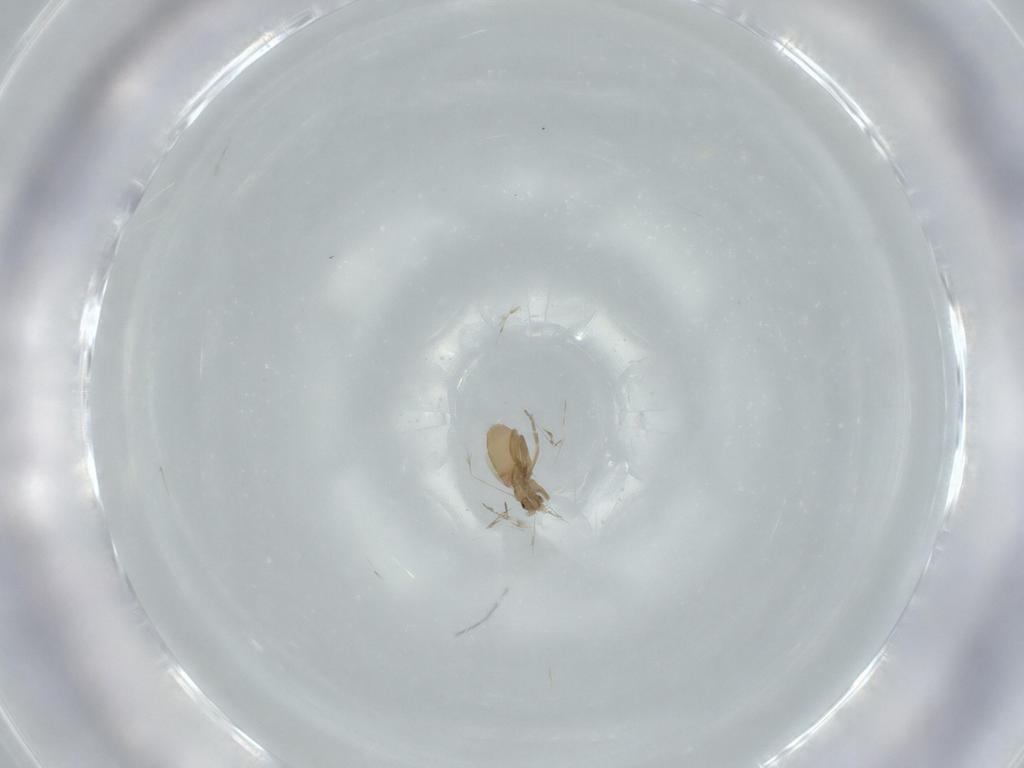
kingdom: Animalia
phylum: Arthropoda
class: Insecta
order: Diptera
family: Phoridae
